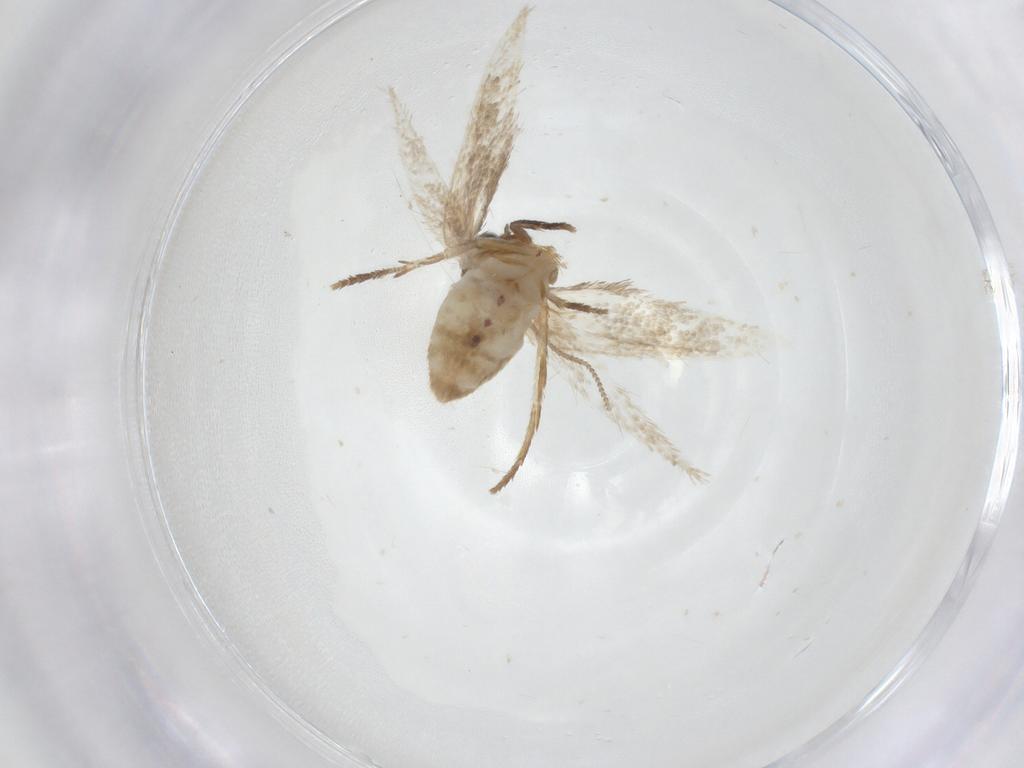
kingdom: Animalia
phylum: Arthropoda
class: Insecta
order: Lepidoptera
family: Nepticulidae
